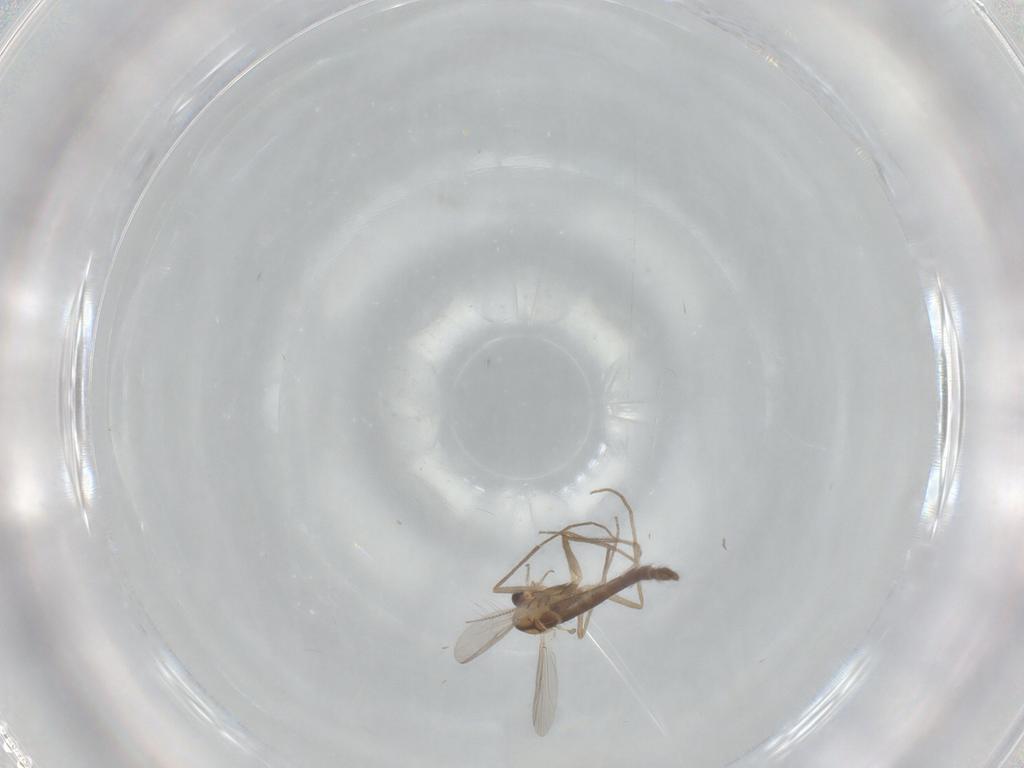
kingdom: Animalia
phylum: Arthropoda
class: Insecta
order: Diptera
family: Chironomidae
